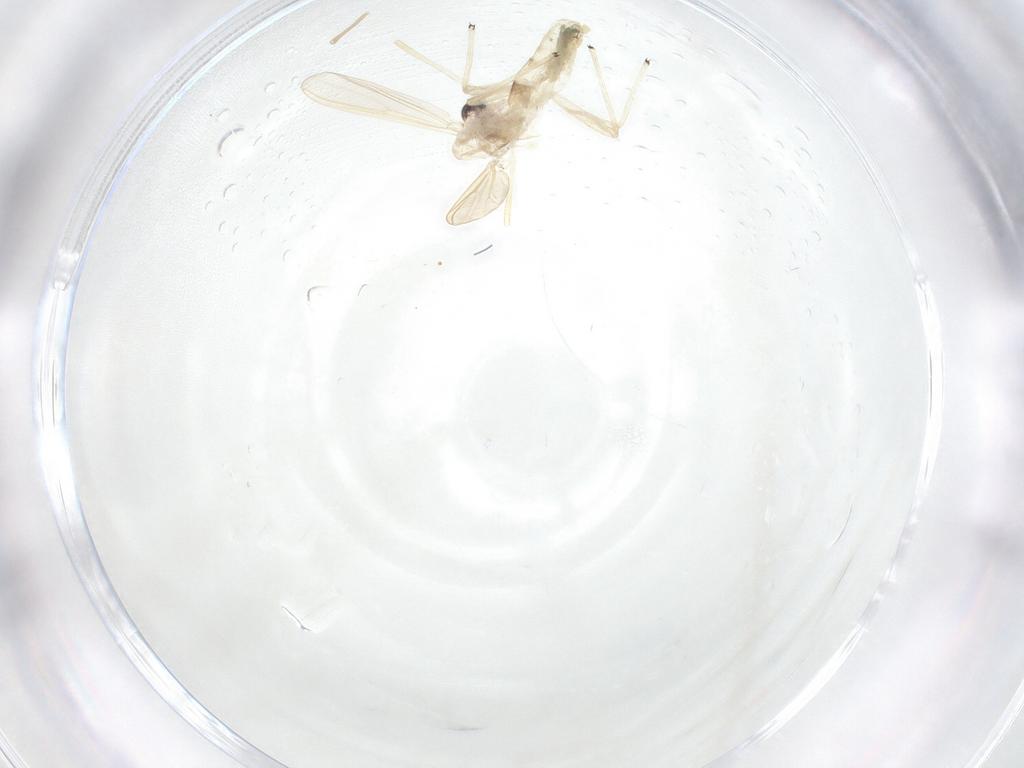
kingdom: Animalia
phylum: Arthropoda
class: Insecta
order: Diptera
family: Chironomidae
